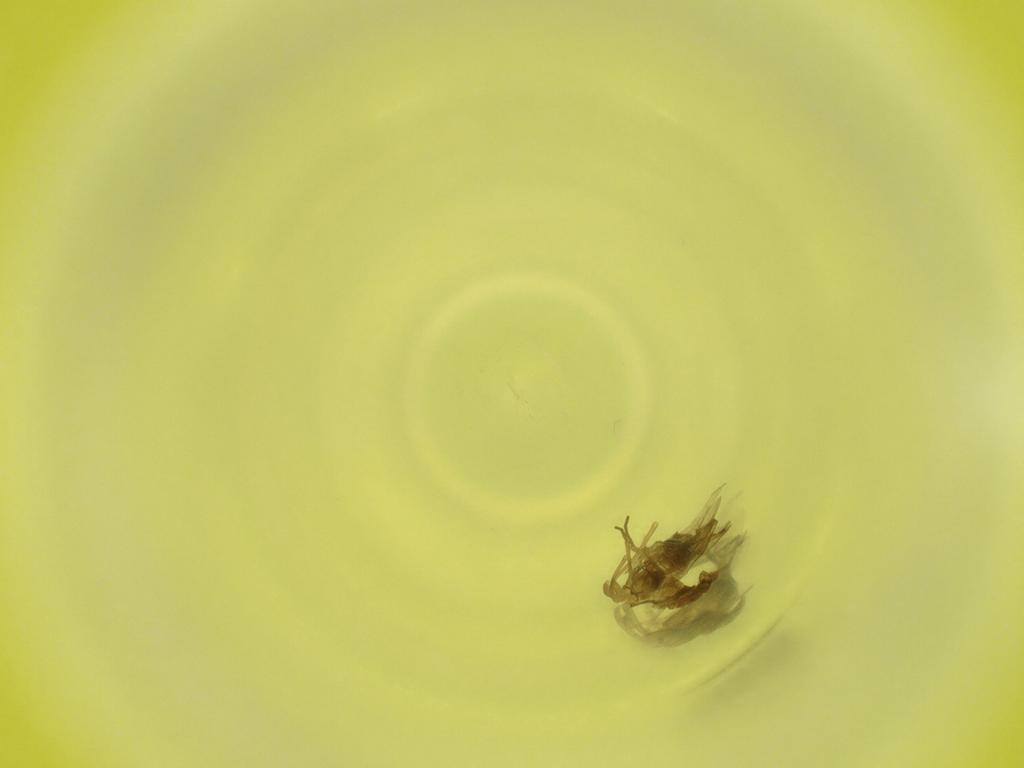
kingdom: Animalia
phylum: Arthropoda
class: Insecta
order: Diptera
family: Cecidomyiidae
